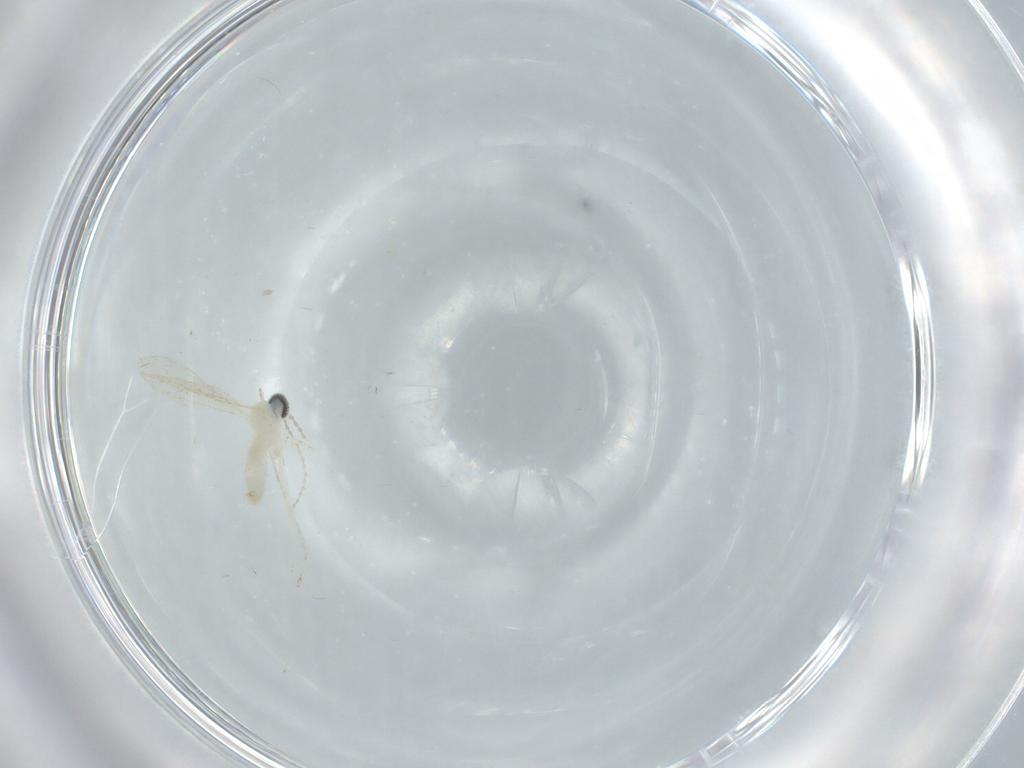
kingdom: Animalia
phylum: Arthropoda
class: Insecta
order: Diptera
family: Cecidomyiidae
